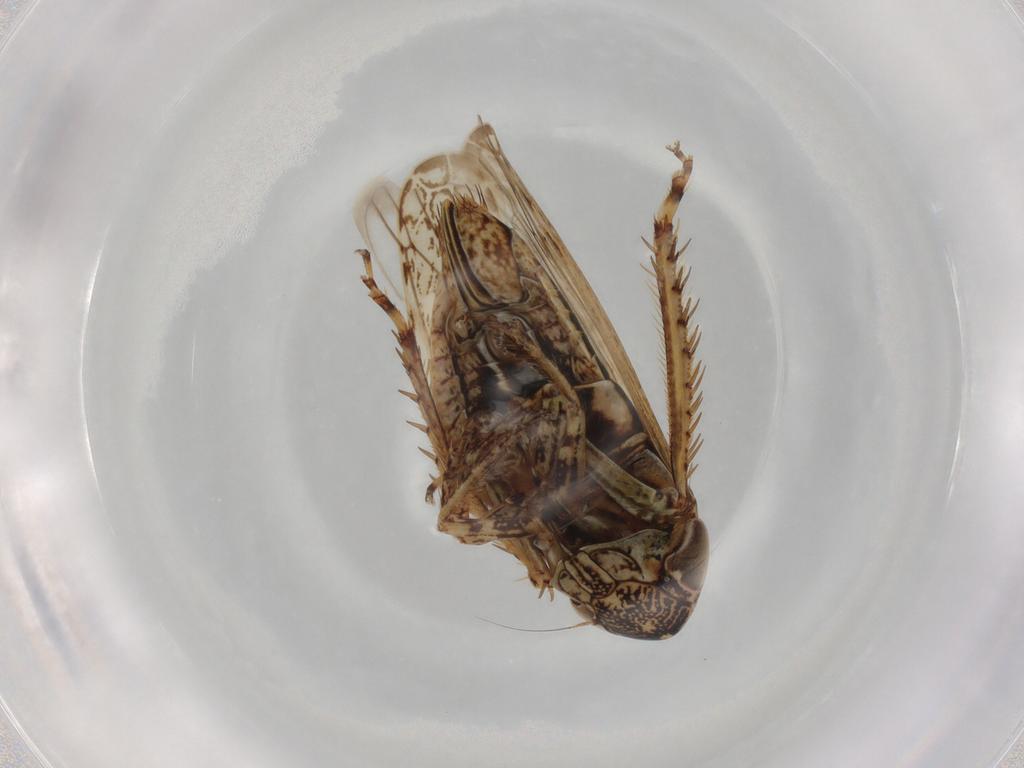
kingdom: Animalia
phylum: Arthropoda
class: Insecta
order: Hemiptera
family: Cicadellidae
